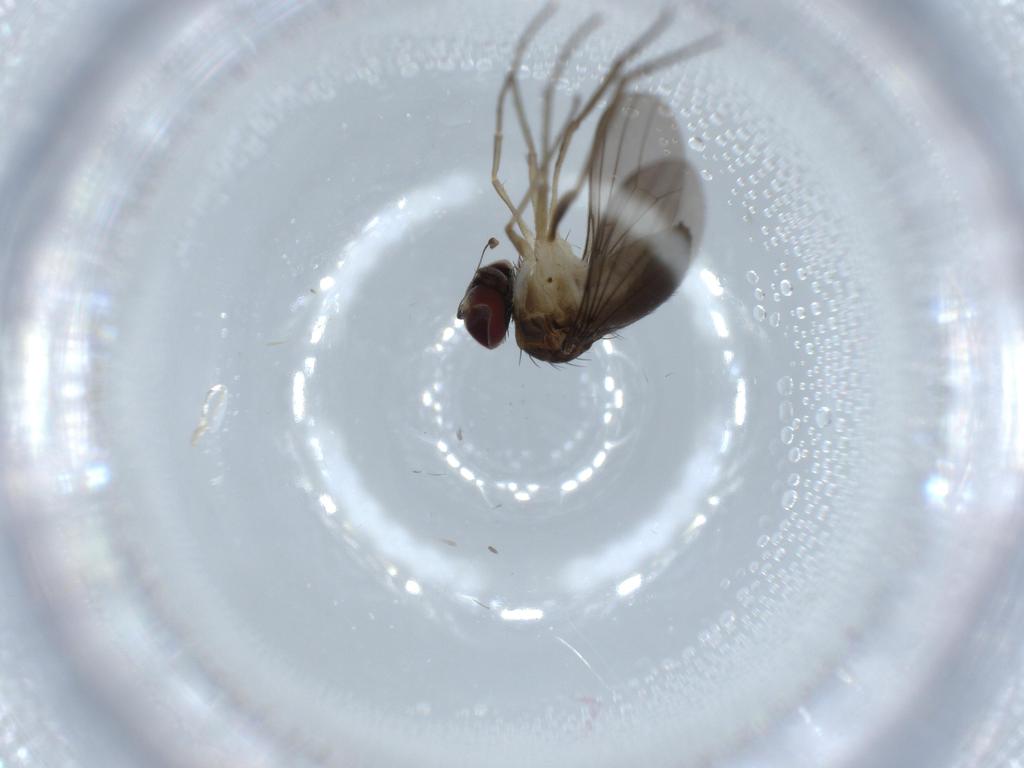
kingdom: Animalia
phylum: Arthropoda
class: Insecta
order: Diptera
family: Dolichopodidae
